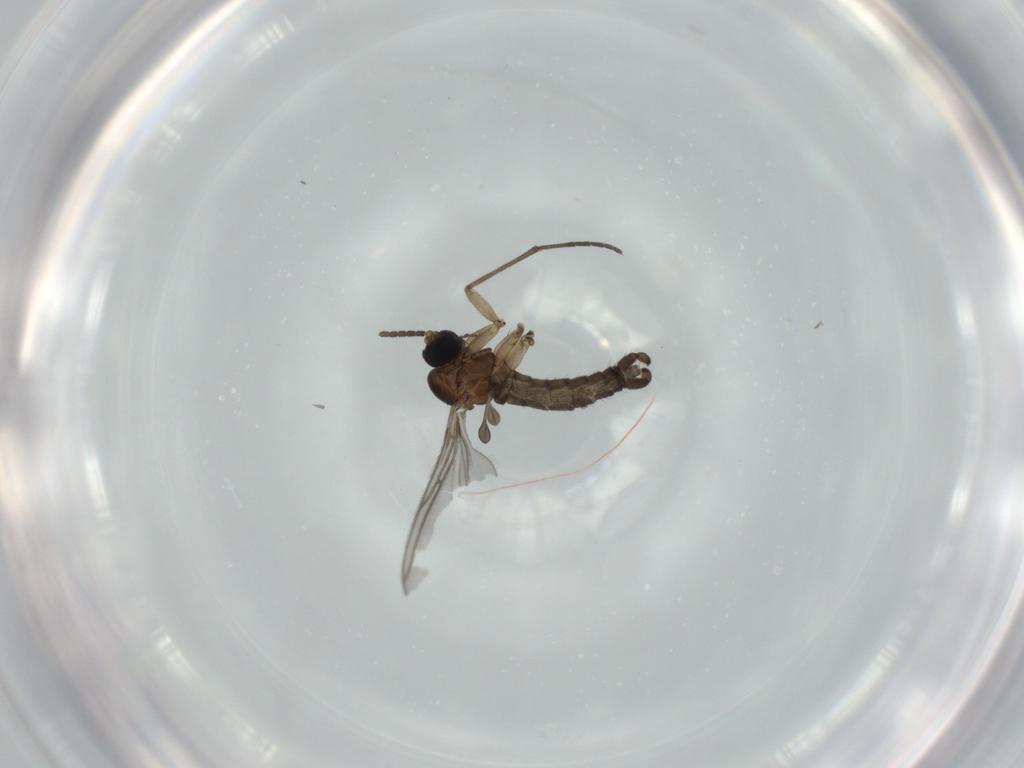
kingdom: Animalia
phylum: Arthropoda
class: Insecta
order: Diptera
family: Sciaridae
